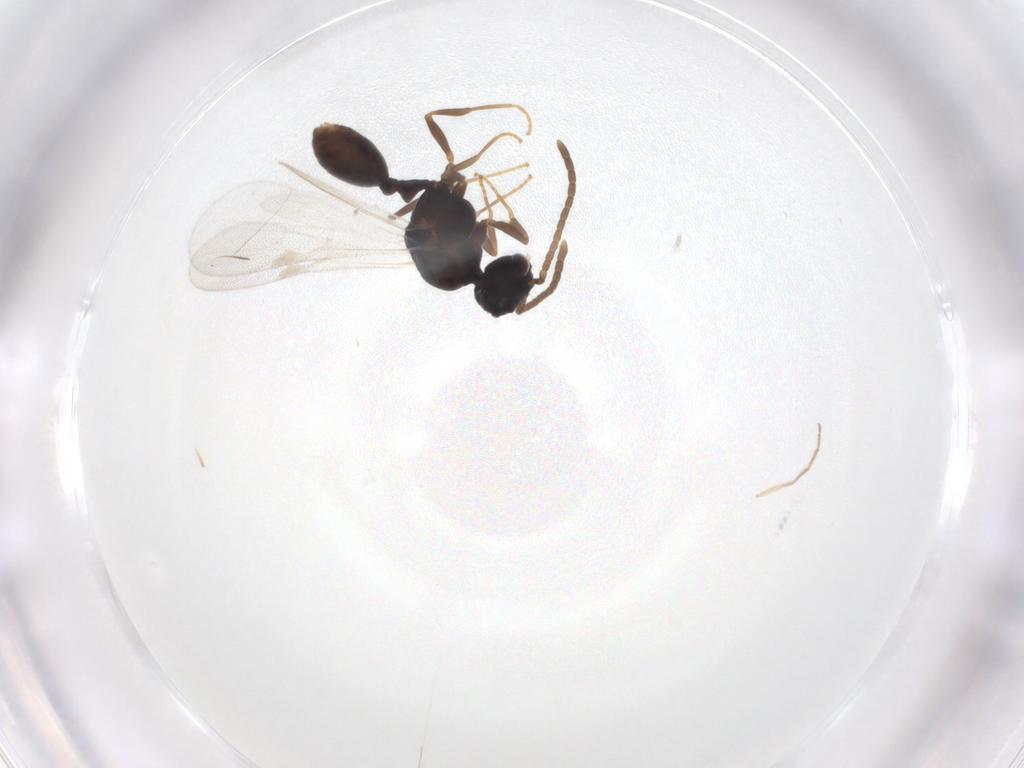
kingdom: Animalia
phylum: Arthropoda
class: Insecta
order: Hymenoptera
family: Formicidae
